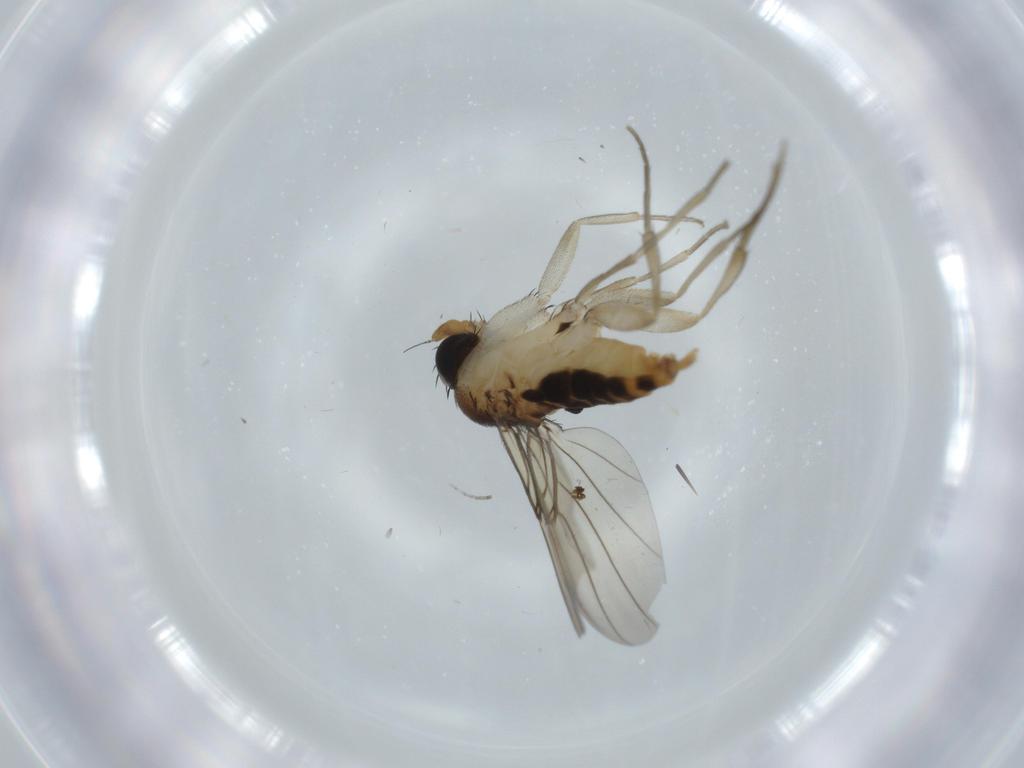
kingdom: Animalia
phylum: Arthropoda
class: Insecta
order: Diptera
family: Phoridae
